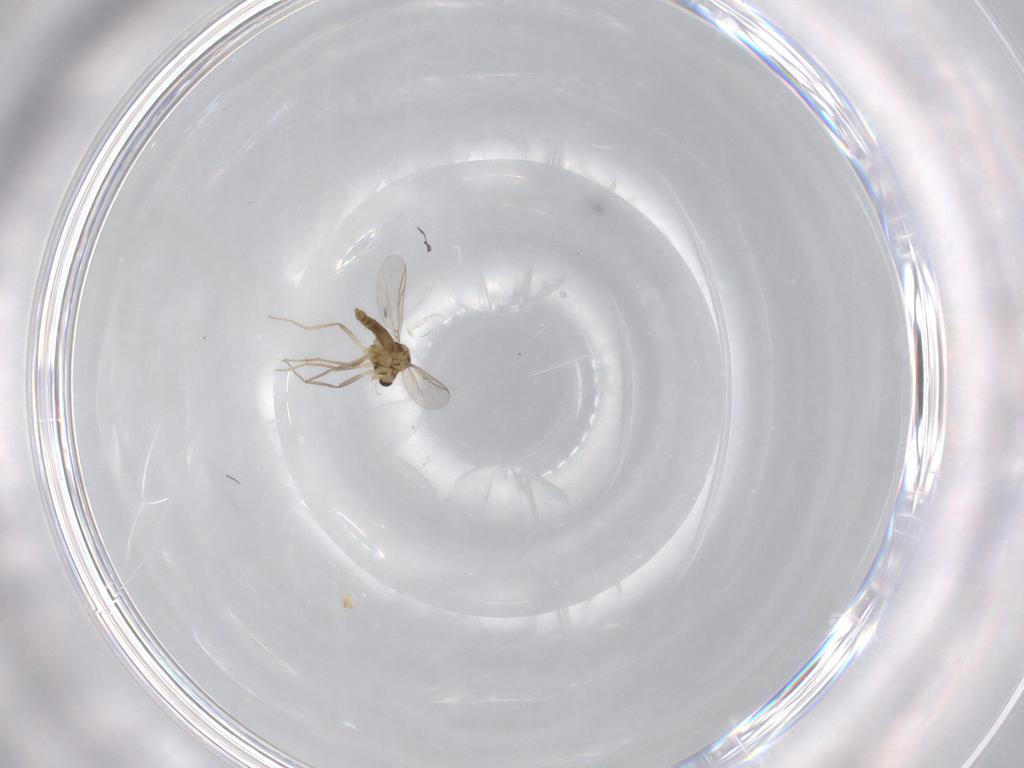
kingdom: Animalia
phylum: Arthropoda
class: Insecta
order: Diptera
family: Chironomidae
